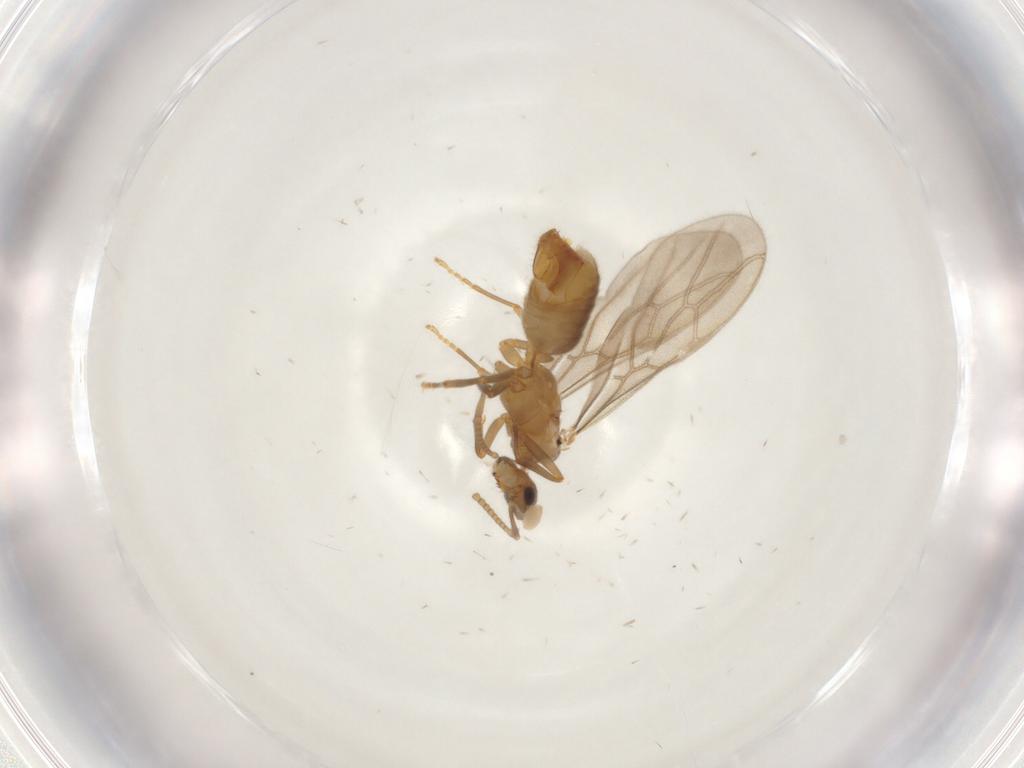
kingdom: Animalia
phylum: Arthropoda
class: Insecta
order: Hymenoptera
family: Formicidae
